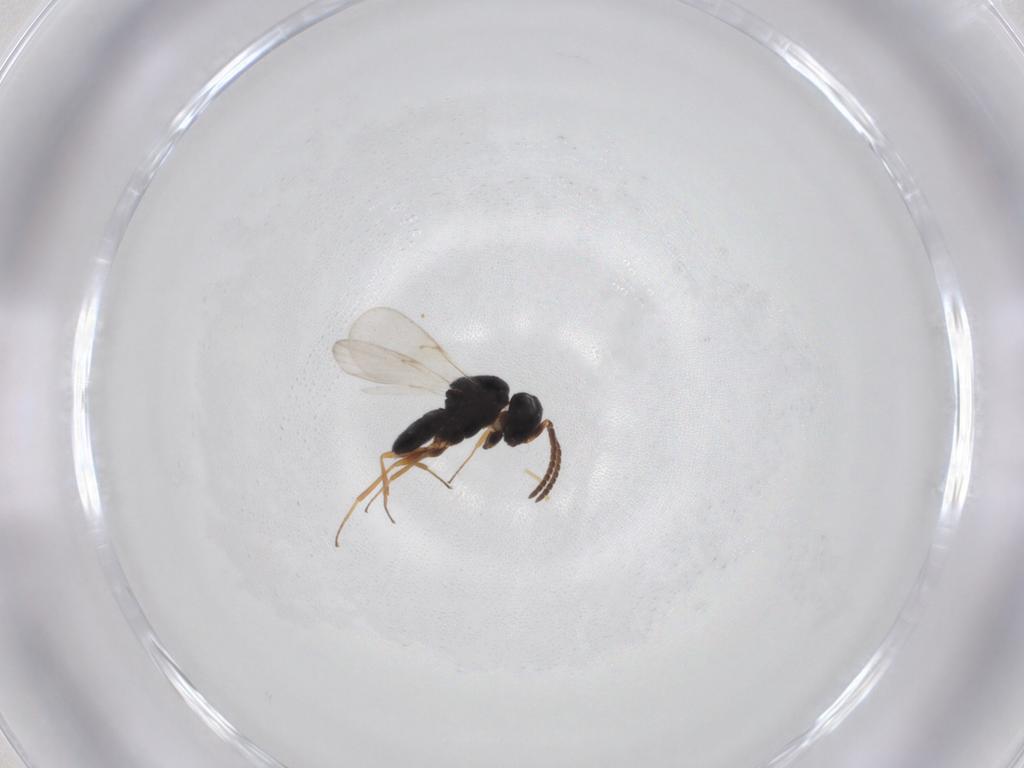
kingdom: Animalia
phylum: Arthropoda
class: Insecta
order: Hymenoptera
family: Scelionidae
